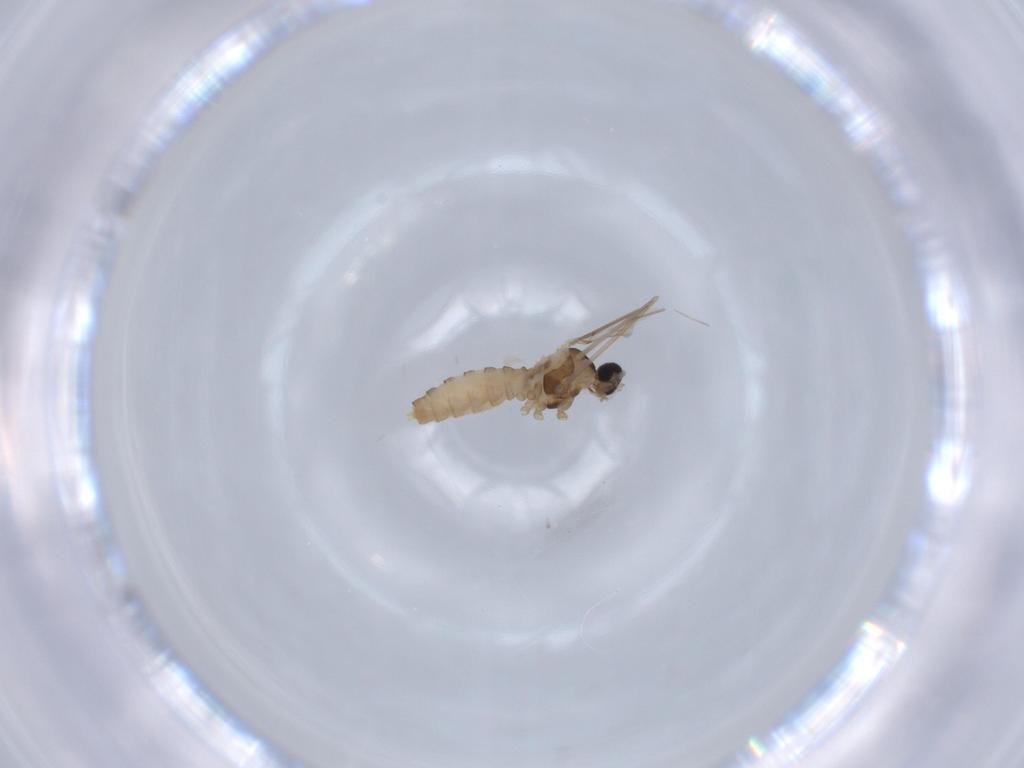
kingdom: Animalia
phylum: Arthropoda
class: Insecta
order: Diptera
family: Cecidomyiidae
